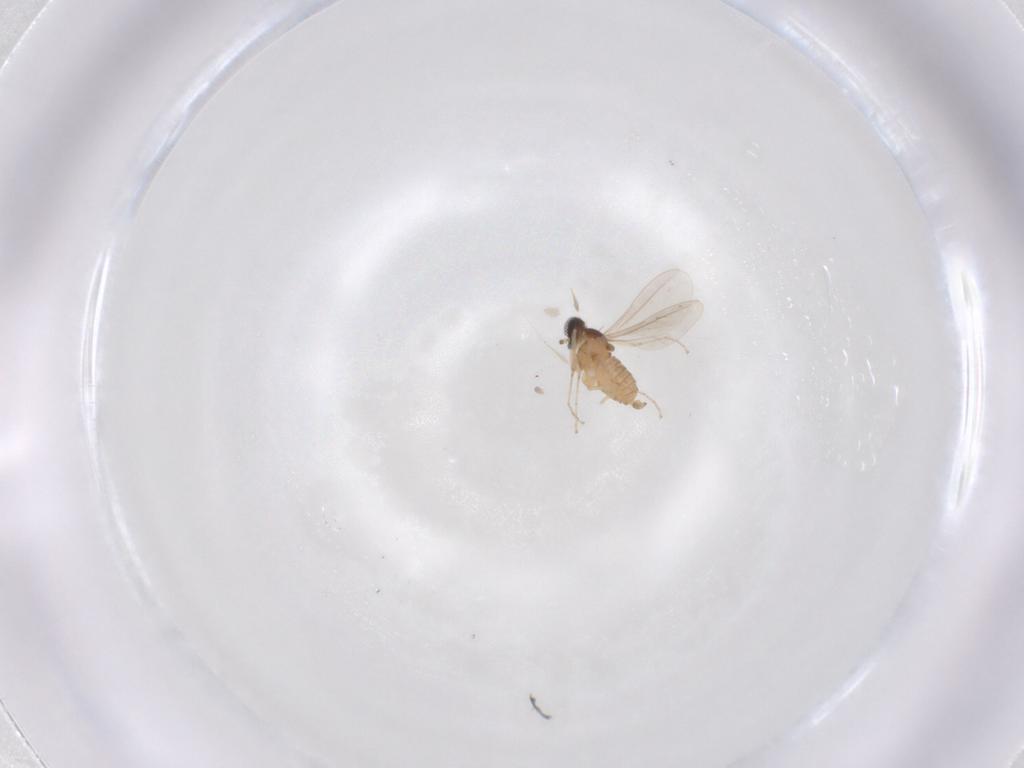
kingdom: Animalia
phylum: Arthropoda
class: Insecta
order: Diptera
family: Cecidomyiidae
